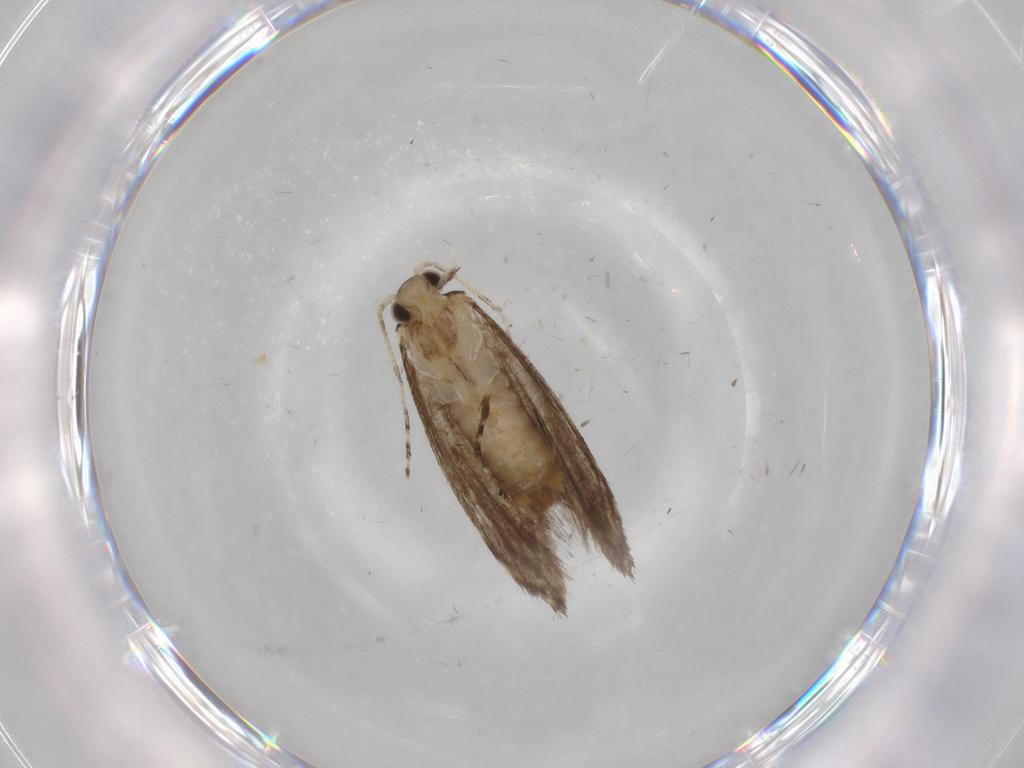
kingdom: Animalia
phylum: Arthropoda
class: Insecta
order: Lepidoptera
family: Tineidae
